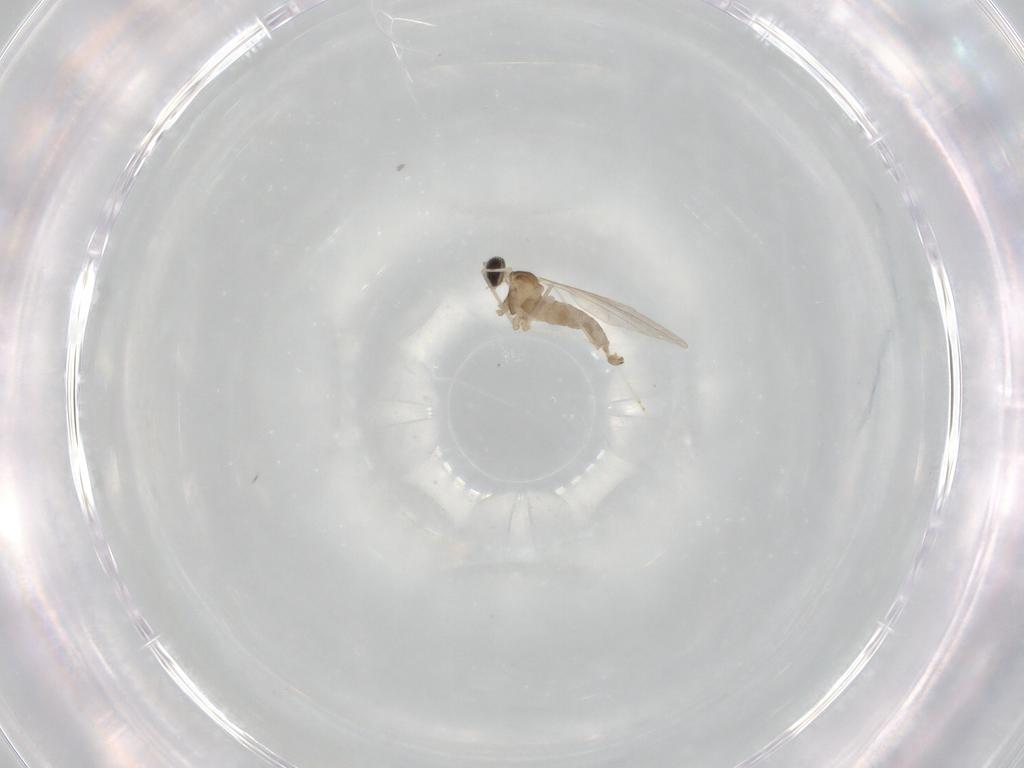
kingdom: Animalia
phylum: Arthropoda
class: Insecta
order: Diptera
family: Cecidomyiidae
